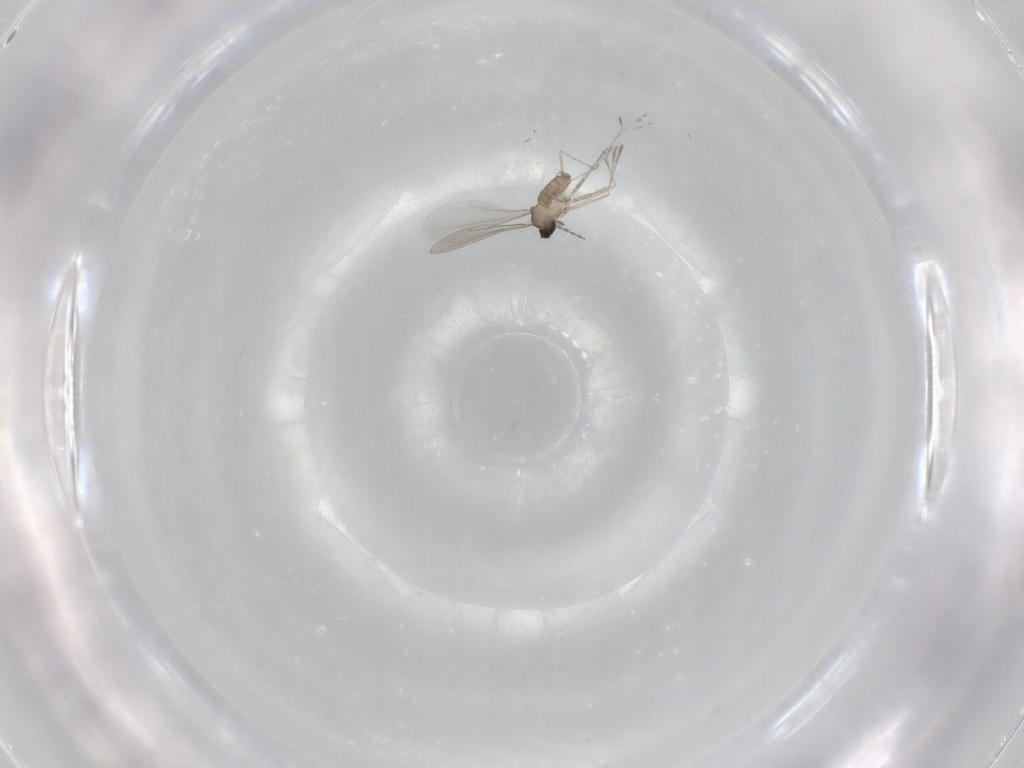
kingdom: Animalia
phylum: Arthropoda
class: Insecta
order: Diptera
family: Cecidomyiidae
